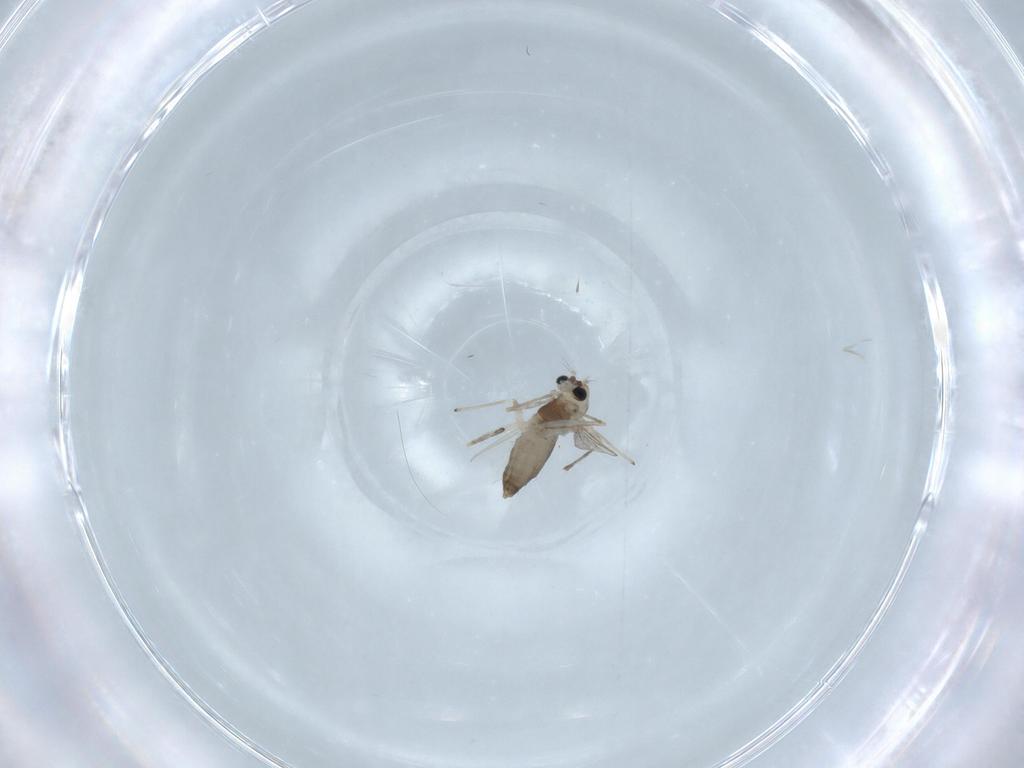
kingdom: Animalia
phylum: Arthropoda
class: Insecta
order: Diptera
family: Chironomidae
